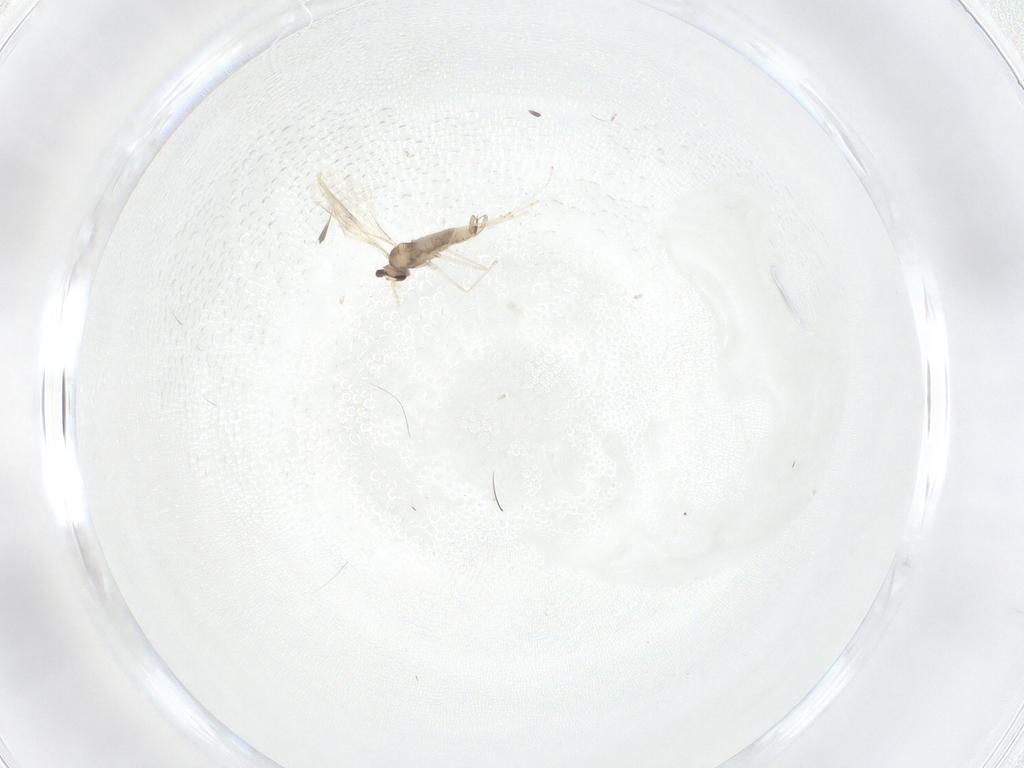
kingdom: Animalia
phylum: Arthropoda
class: Insecta
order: Diptera
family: Cecidomyiidae
